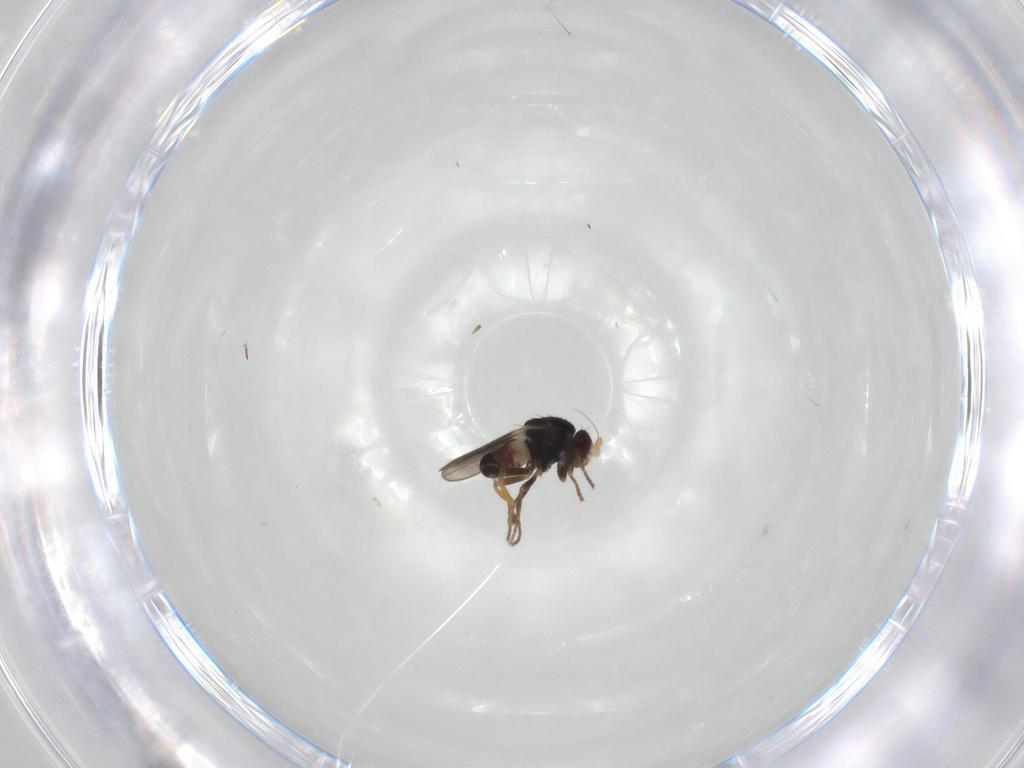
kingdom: Animalia
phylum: Arthropoda
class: Insecta
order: Diptera
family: Sphaeroceridae
